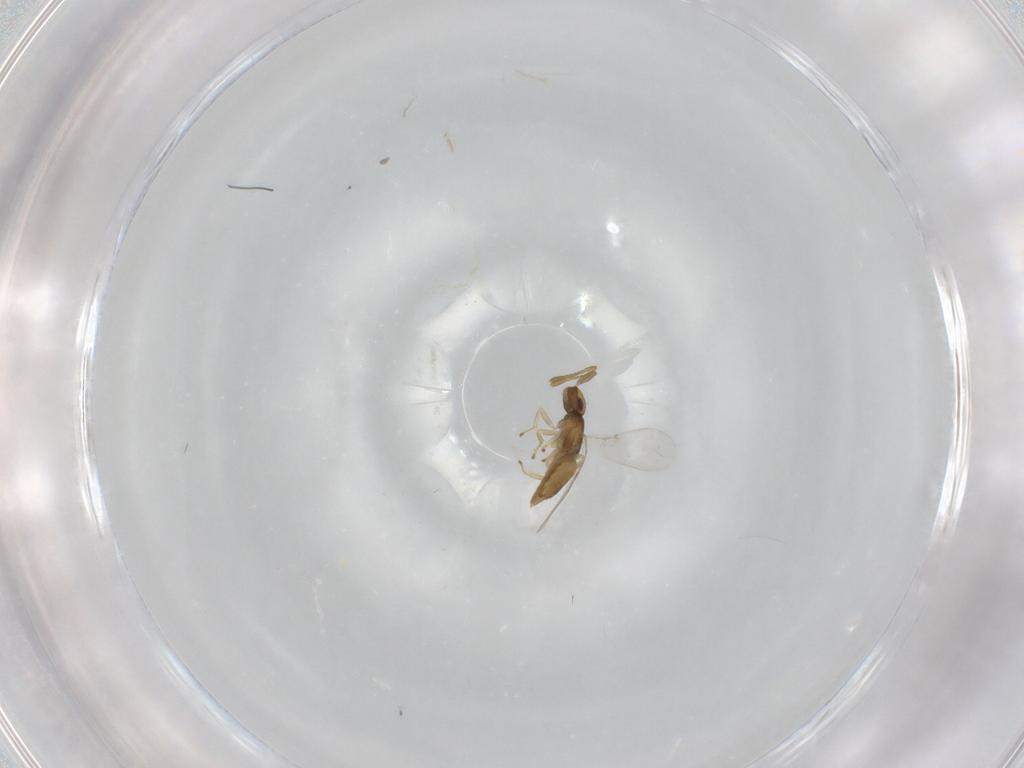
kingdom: Animalia
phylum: Arthropoda
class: Insecta
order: Hymenoptera
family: Encyrtidae
